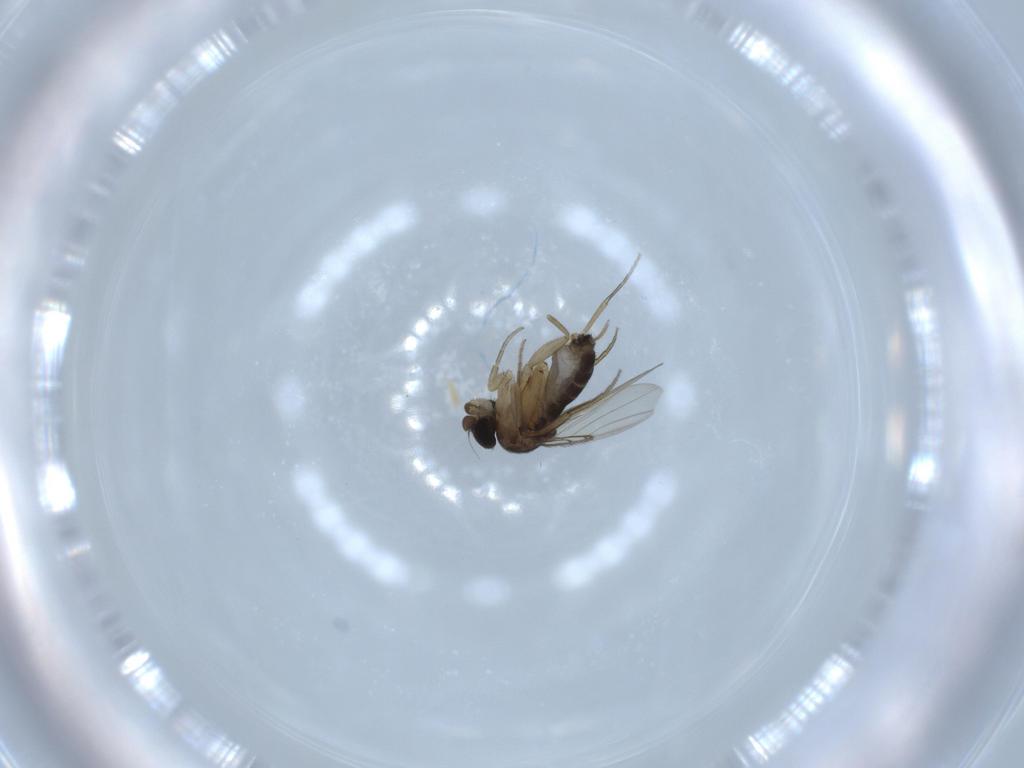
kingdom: Animalia
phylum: Arthropoda
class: Insecta
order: Diptera
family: Phoridae
